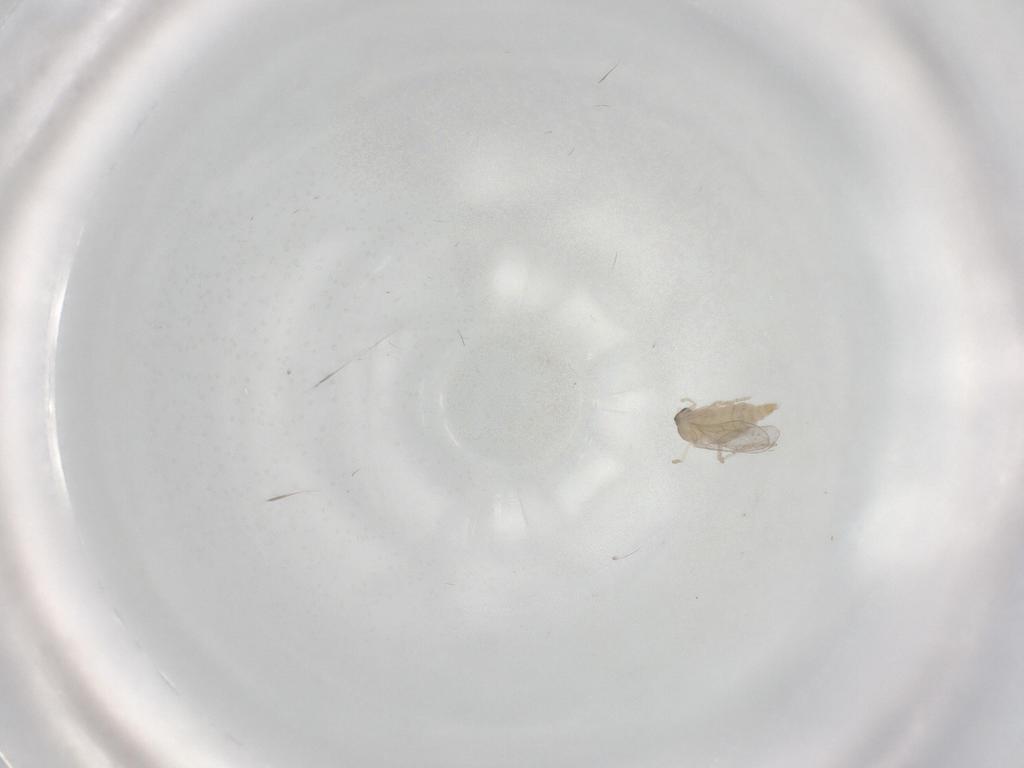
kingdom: Animalia
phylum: Arthropoda
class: Insecta
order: Diptera
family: Cecidomyiidae
